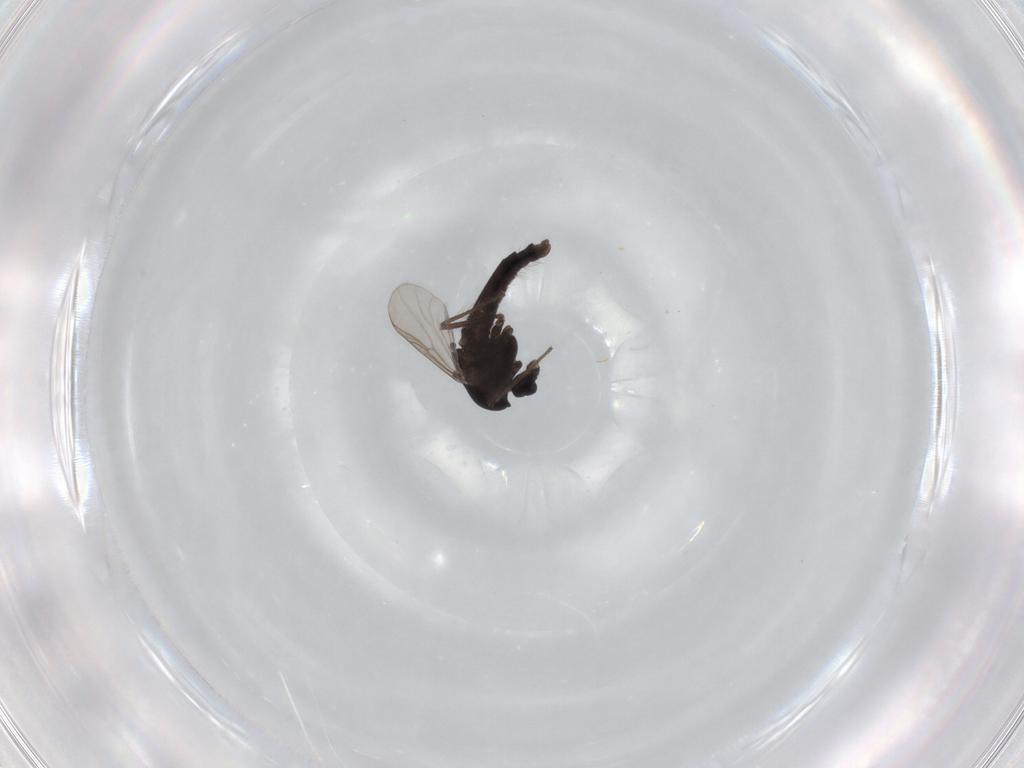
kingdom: Animalia
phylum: Arthropoda
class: Insecta
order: Diptera
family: Chironomidae
